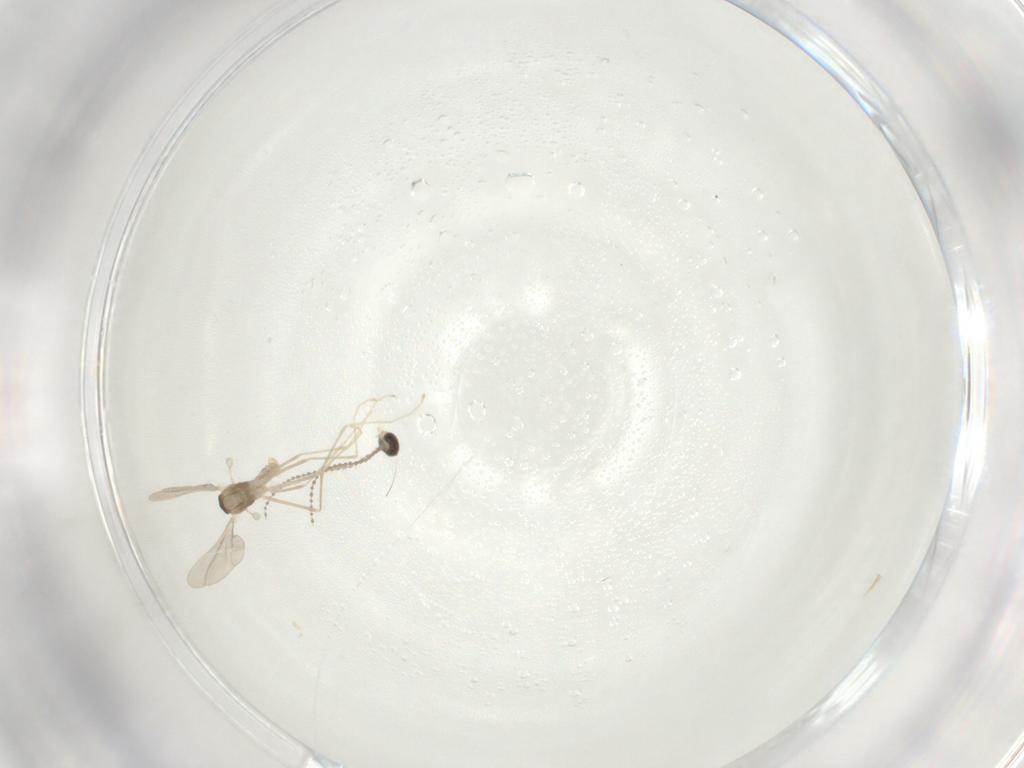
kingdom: Animalia
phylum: Arthropoda
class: Insecta
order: Diptera
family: Cecidomyiidae
